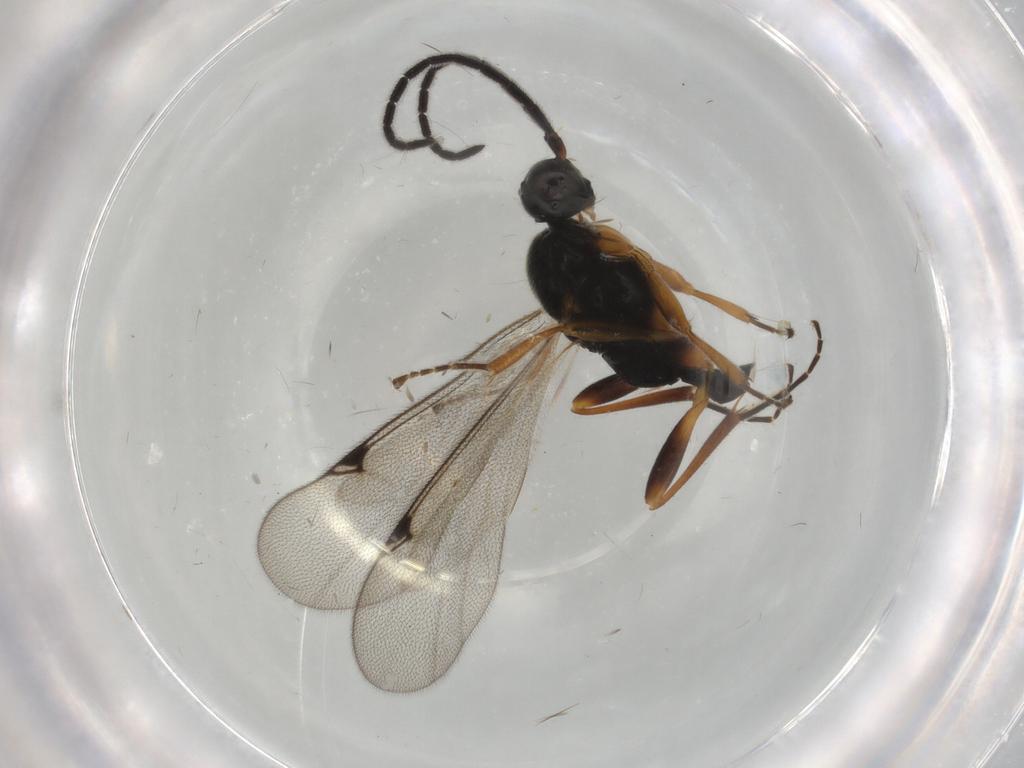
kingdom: Animalia
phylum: Arthropoda
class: Insecta
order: Hymenoptera
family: Proctotrupidae
